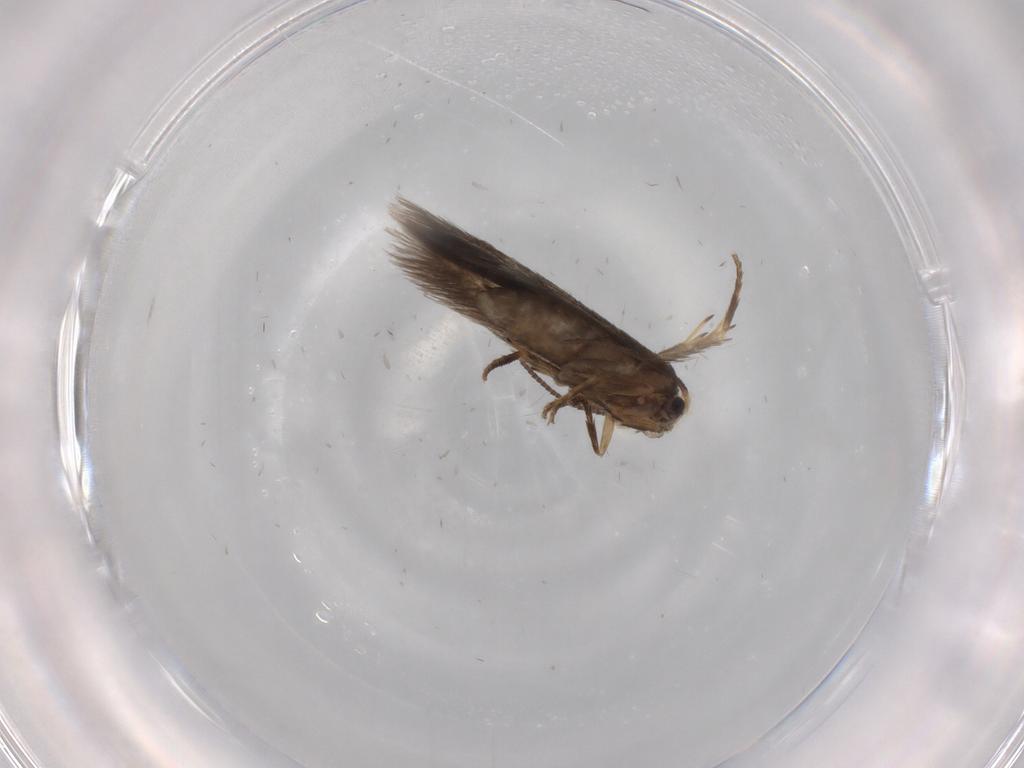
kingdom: Animalia
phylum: Arthropoda
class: Insecta
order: Lepidoptera
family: Nepticulidae
